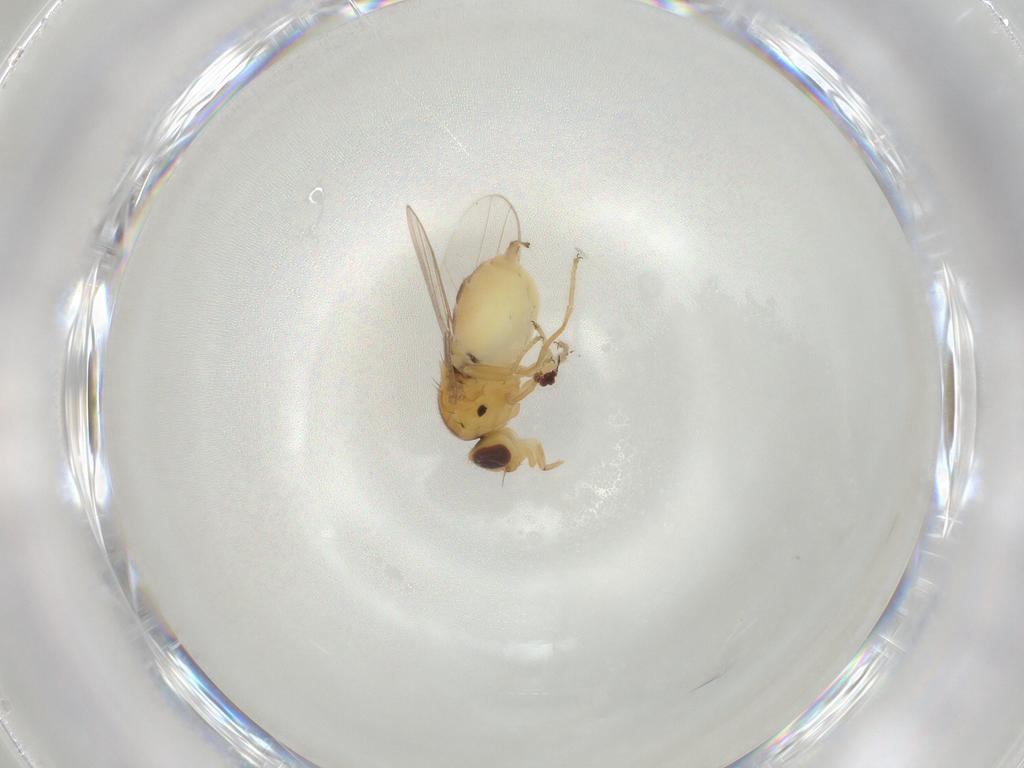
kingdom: Animalia
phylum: Arthropoda
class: Insecta
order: Diptera
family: Chloropidae
